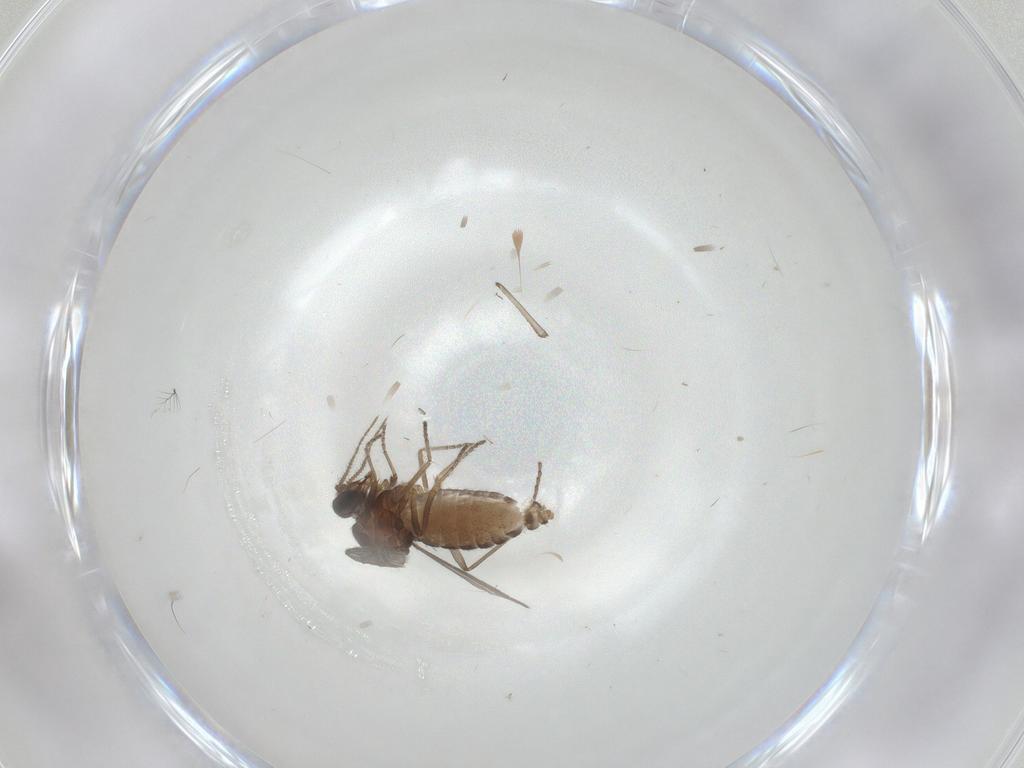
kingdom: Animalia
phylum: Arthropoda
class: Insecta
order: Diptera
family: Ceratopogonidae
